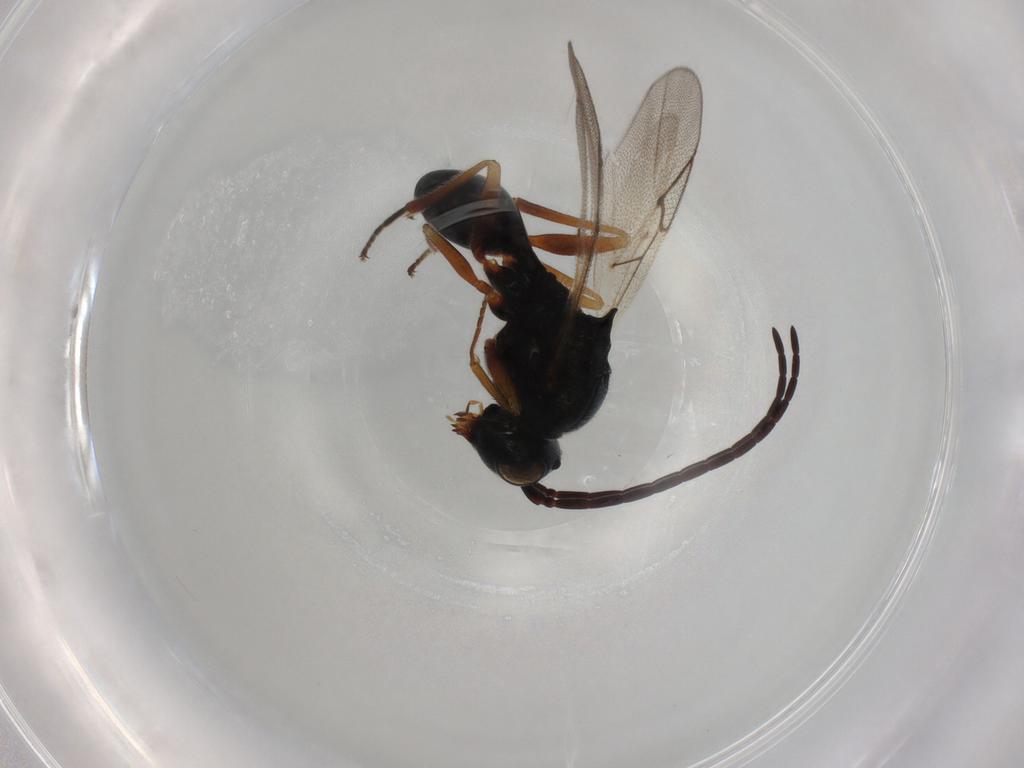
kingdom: Animalia
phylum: Arthropoda
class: Insecta
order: Hymenoptera
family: Figitidae
